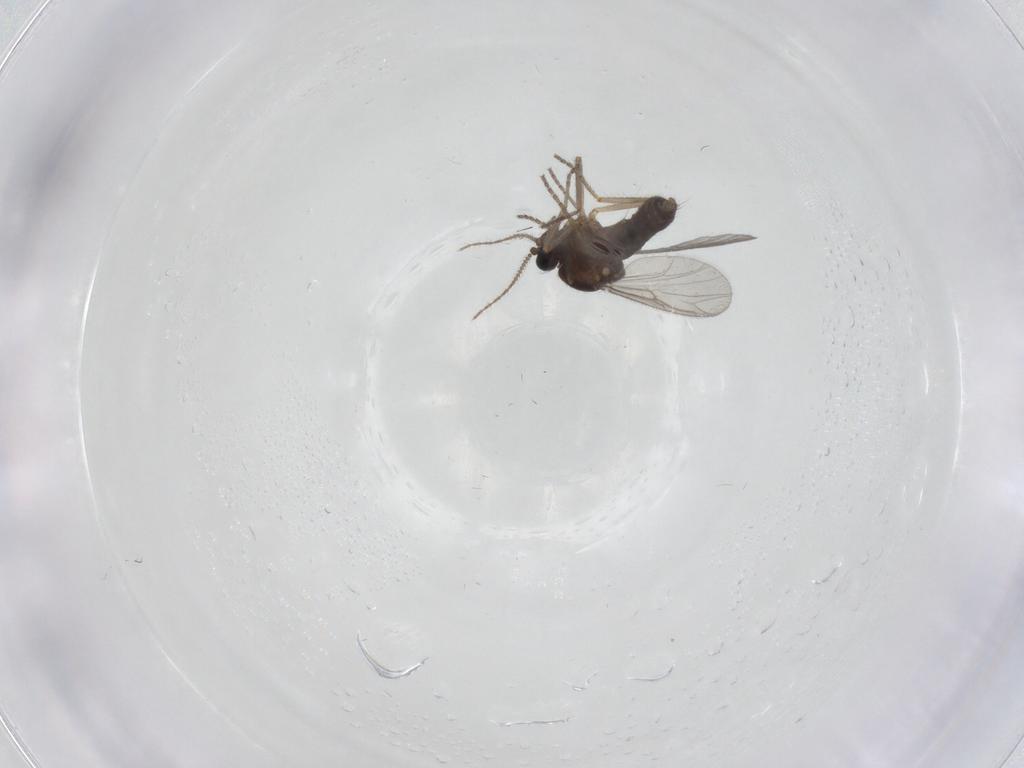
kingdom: Animalia
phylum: Arthropoda
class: Insecta
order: Diptera
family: Ceratopogonidae
